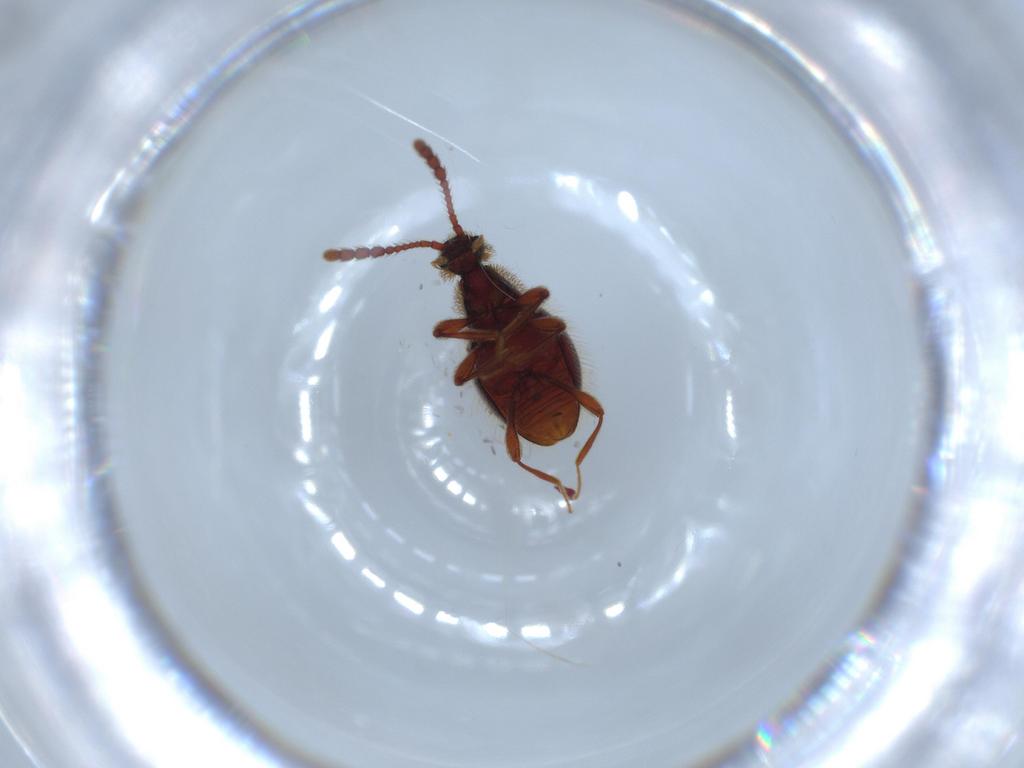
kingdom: Animalia
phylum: Arthropoda
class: Insecta
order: Coleoptera
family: Staphylinidae
